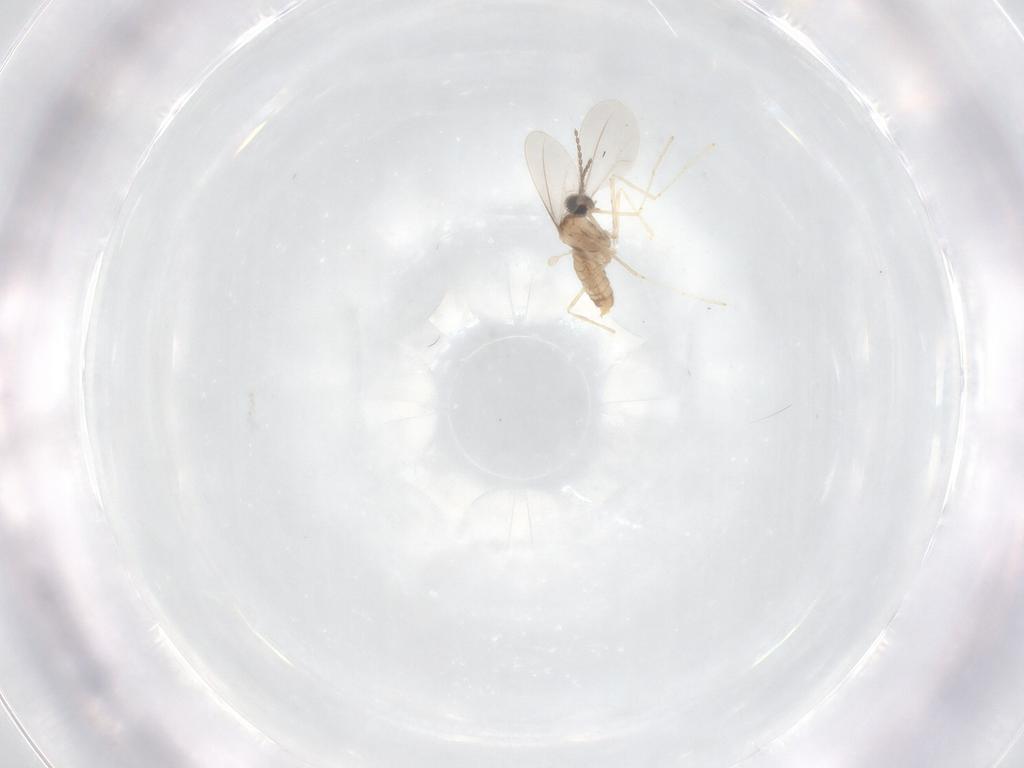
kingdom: Animalia
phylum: Arthropoda
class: Insecta
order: Diptera
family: Cecidomyiidae
